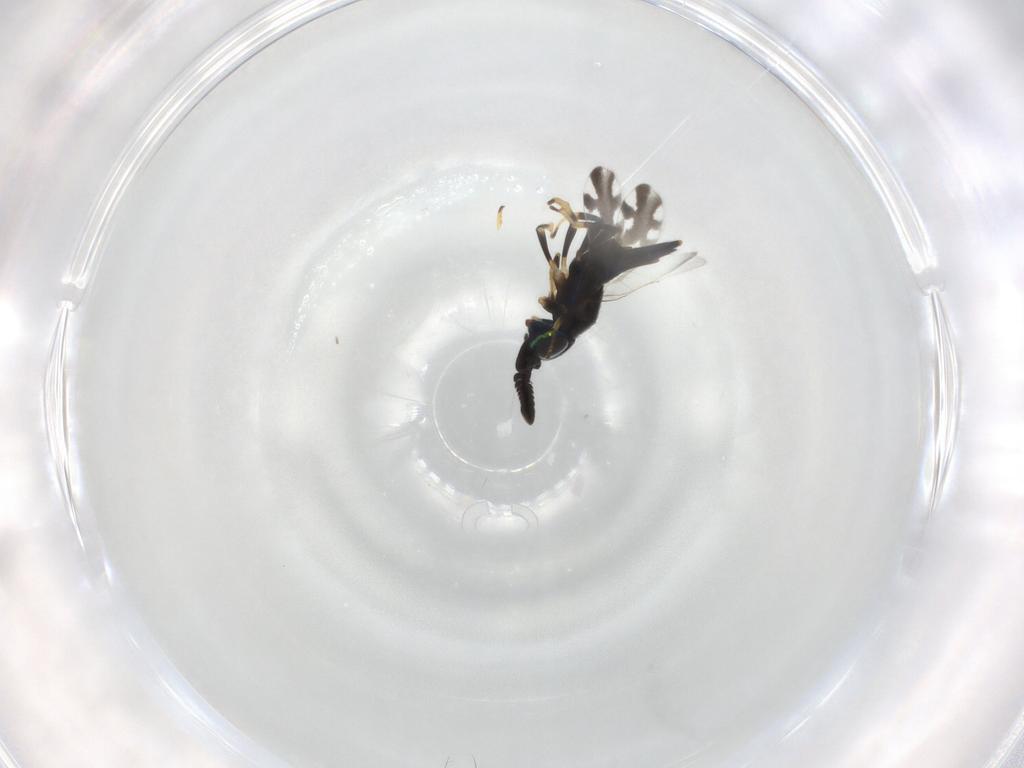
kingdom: Animalia
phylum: Arthropoda
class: Insecta
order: Hymenoptera
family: Encyrtidae
